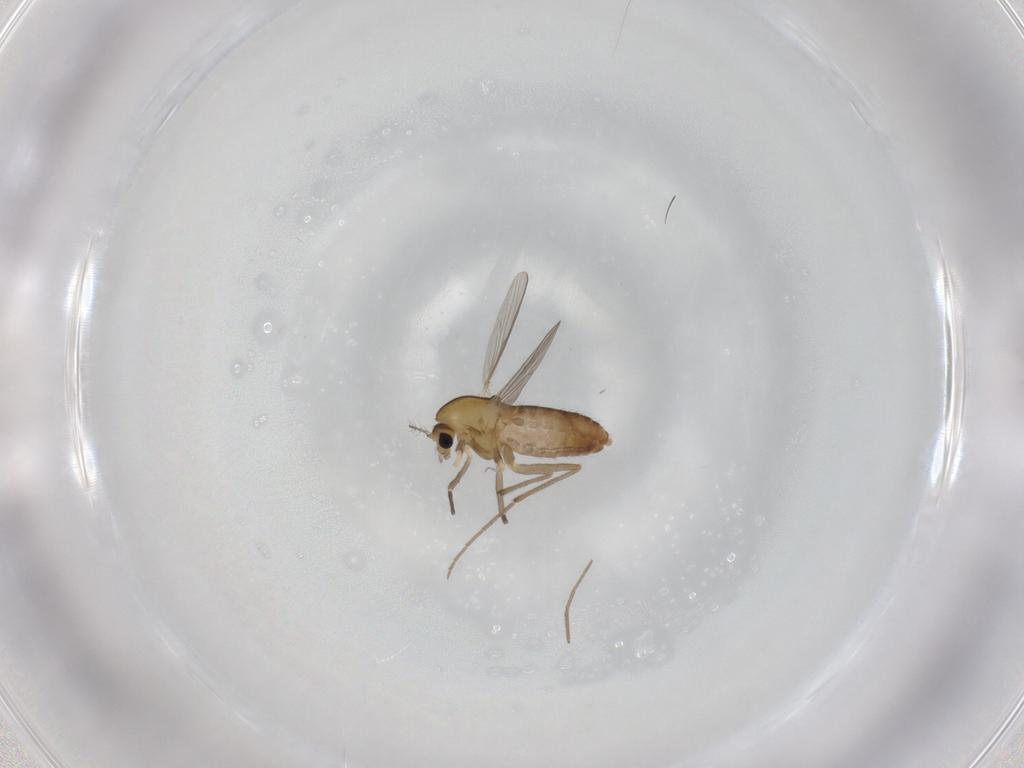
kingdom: Animalia
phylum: Arthropoda
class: Insecta
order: Diptera
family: Chironomidae
